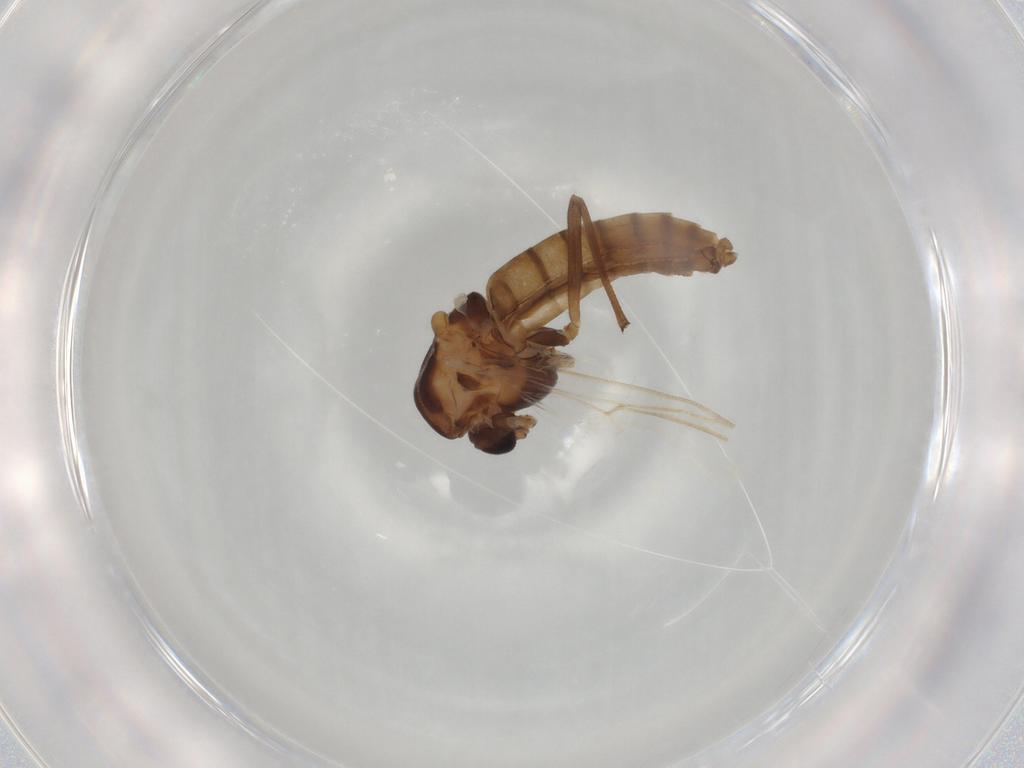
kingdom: Animalia
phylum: Arthropoda
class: Insecta
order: Diptera
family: Chironomidae
